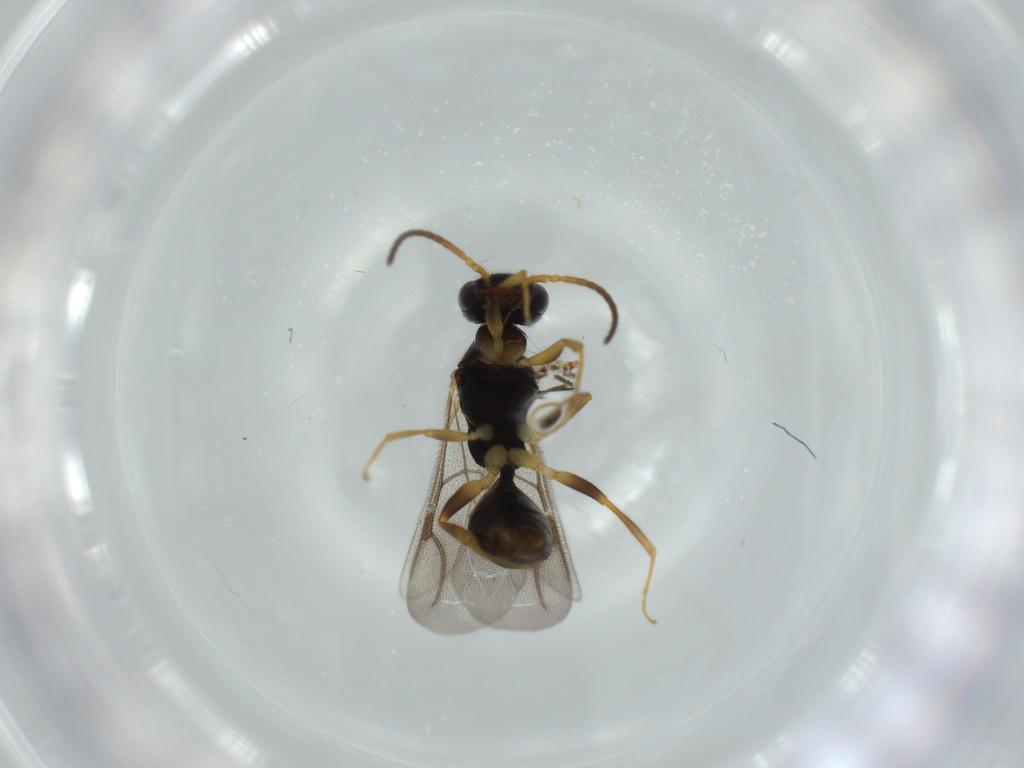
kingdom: Animalia
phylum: Arthropoda
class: Insecta
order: Hymenoptera
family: Bethylidae
